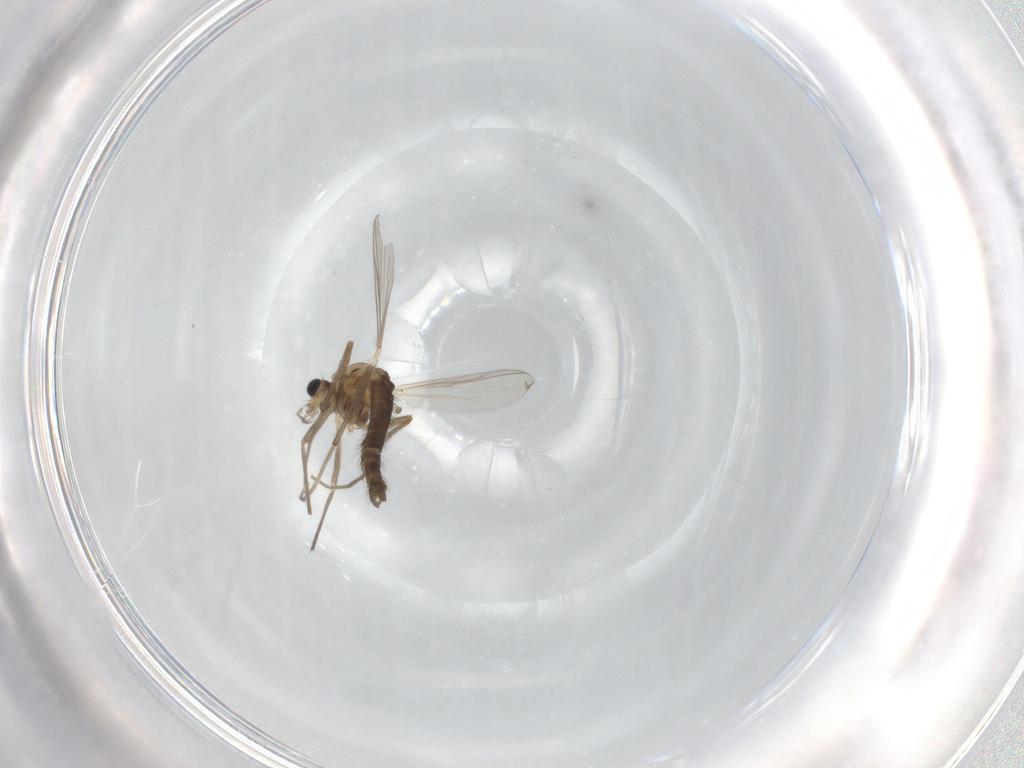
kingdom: Animalia
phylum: Arthropoda
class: Insecta
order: Diptera
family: Chironomidae
